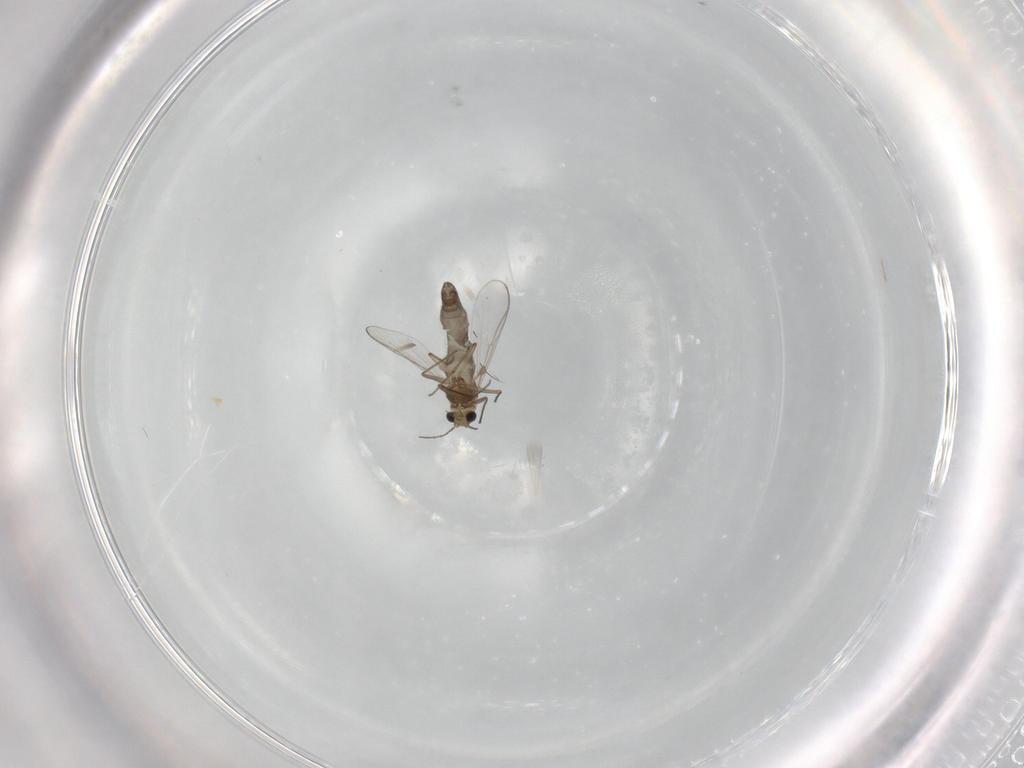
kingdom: Animalia
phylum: Arthropoda
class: Insecta
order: Diptera
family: Chironomidae
